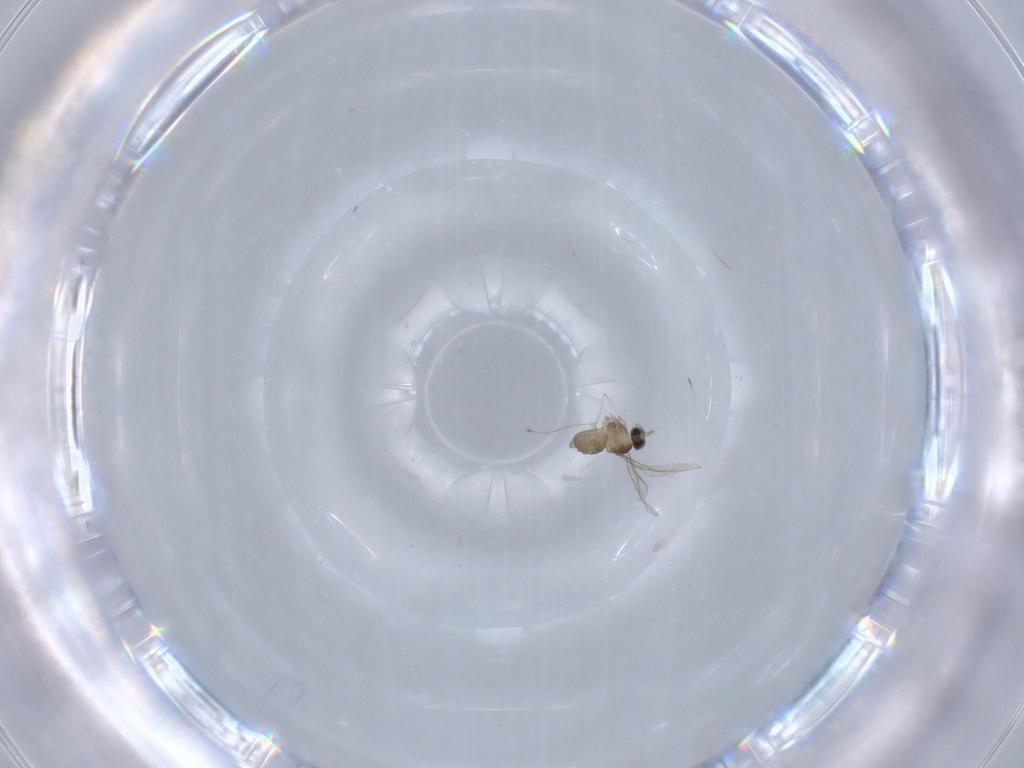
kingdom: Animalia
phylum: Arthropoda
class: Insecta
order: Diptera
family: Cecidomyiidae
